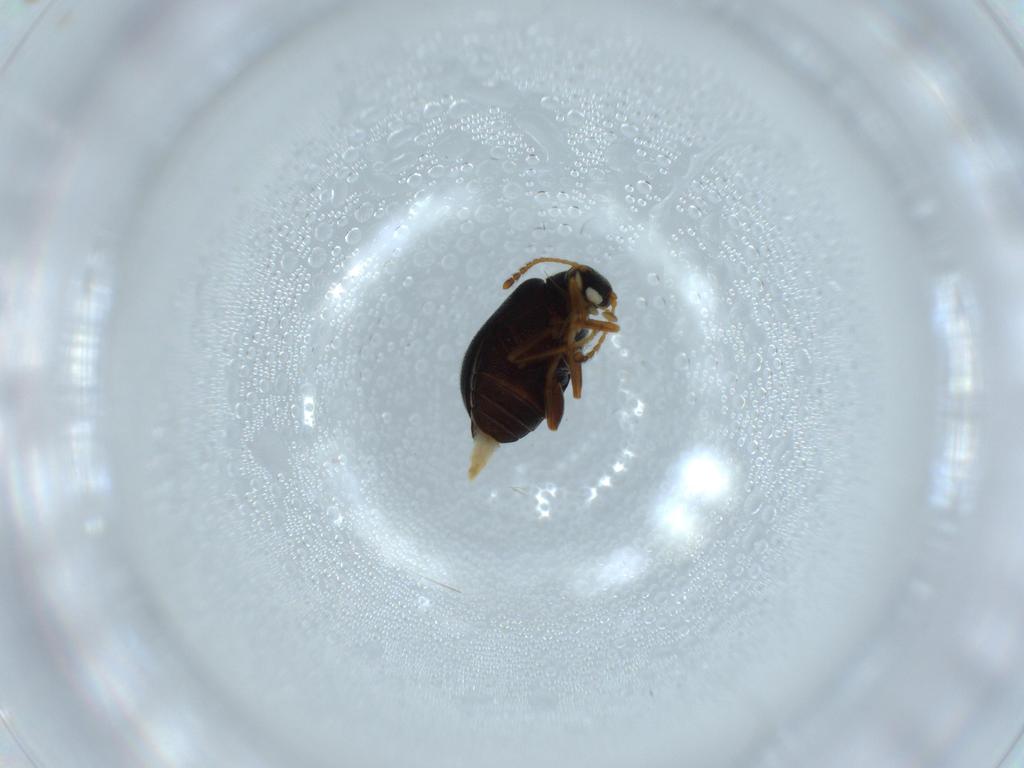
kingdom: Animalia
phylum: Arthropoda
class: Insecta
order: Coleoptera
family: Aderidae
